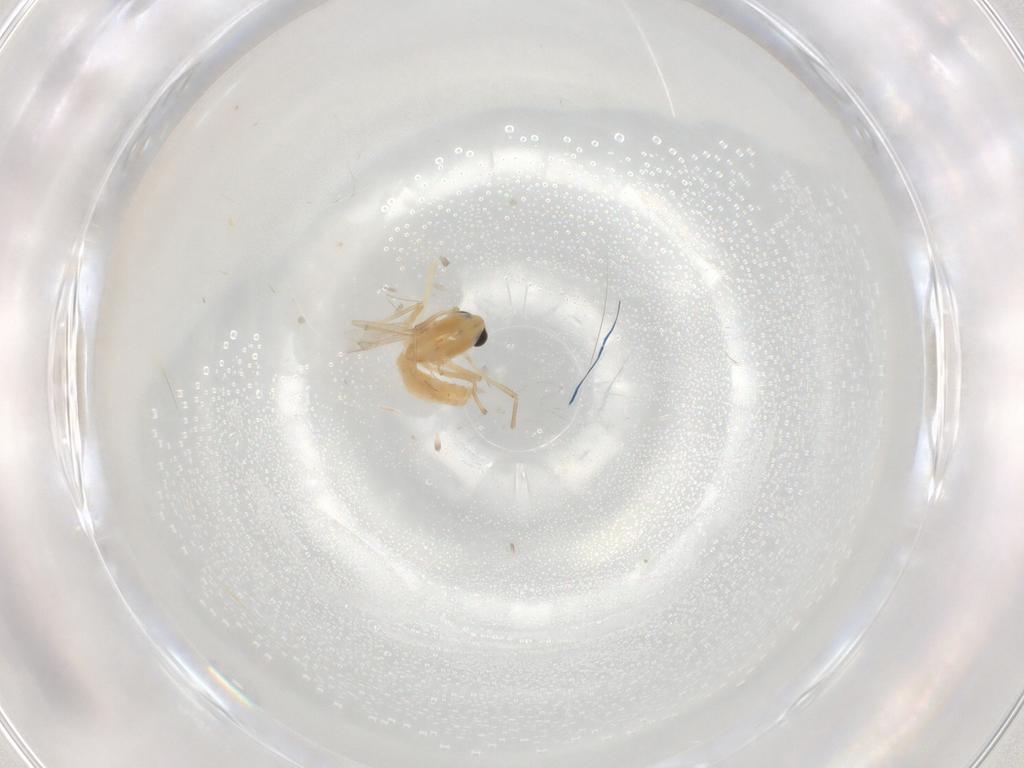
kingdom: Animalia
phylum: Arthropoda
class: Insecta
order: Diptera
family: Chironomidae
